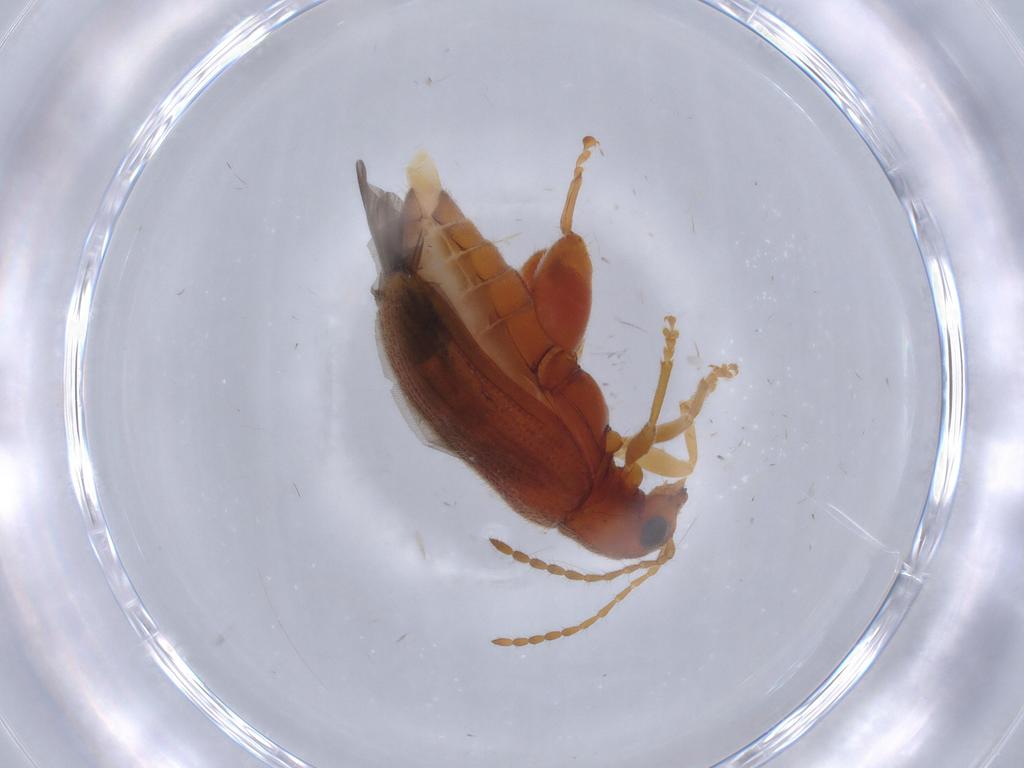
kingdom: Animalia
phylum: Arthropoda
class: Insecta
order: Coleoptera
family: Chrysomelidae
